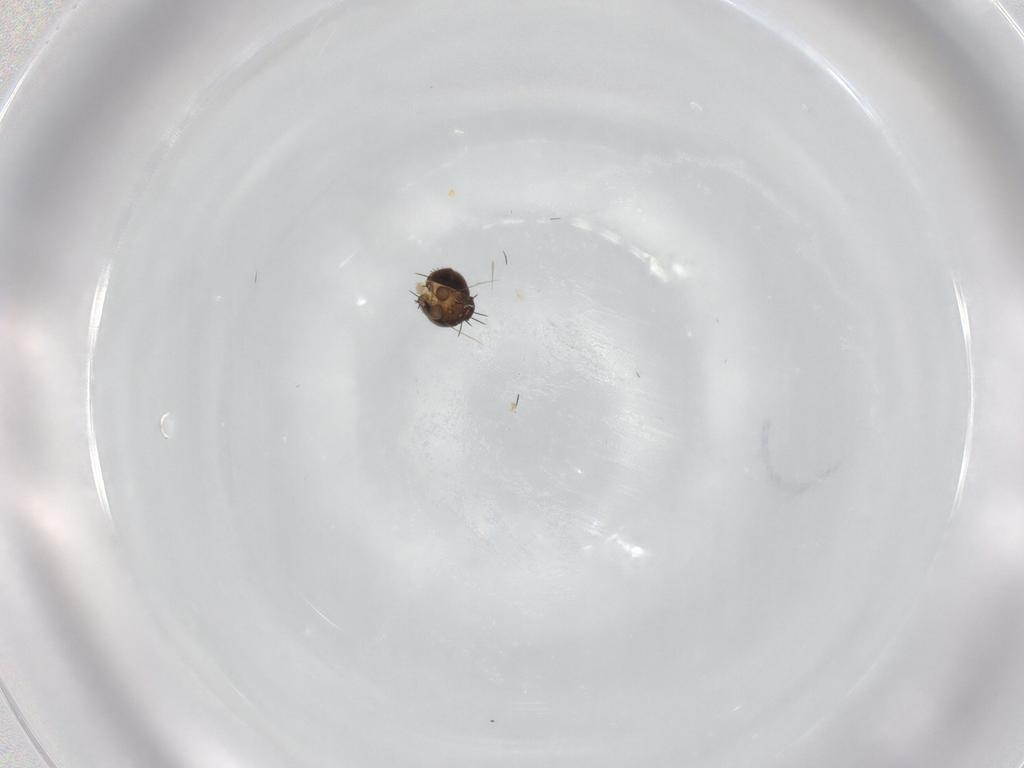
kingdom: Animalia
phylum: Arthropoda
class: Insecta
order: Diptera
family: Phoridae
